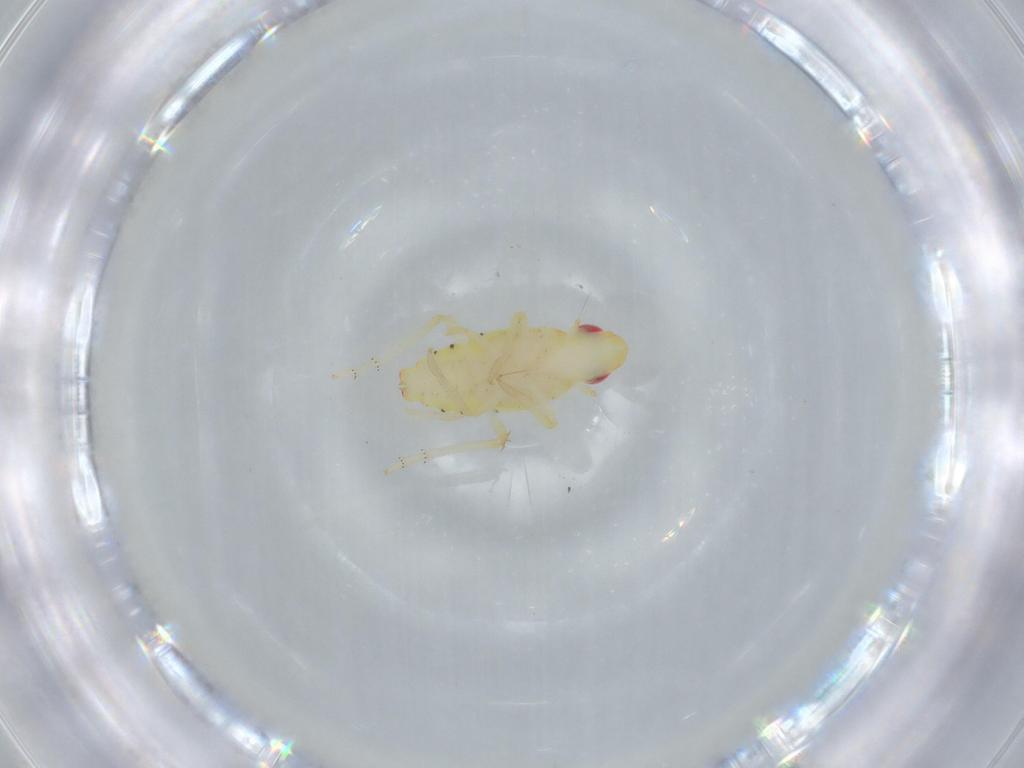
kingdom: Animalia
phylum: Arthropoda
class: Insecta
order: Hemiptera
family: Tropiduchidae
